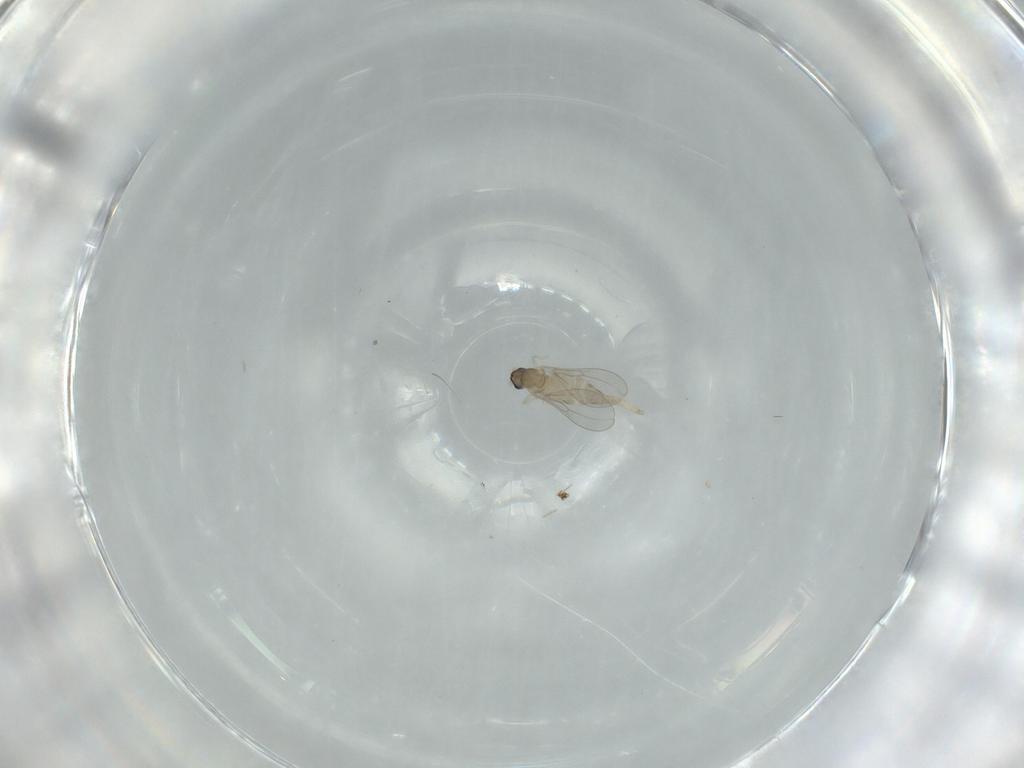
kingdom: Animalia
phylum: Arthropoda
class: Insecta
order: Diptera
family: Cecidomyiidae
